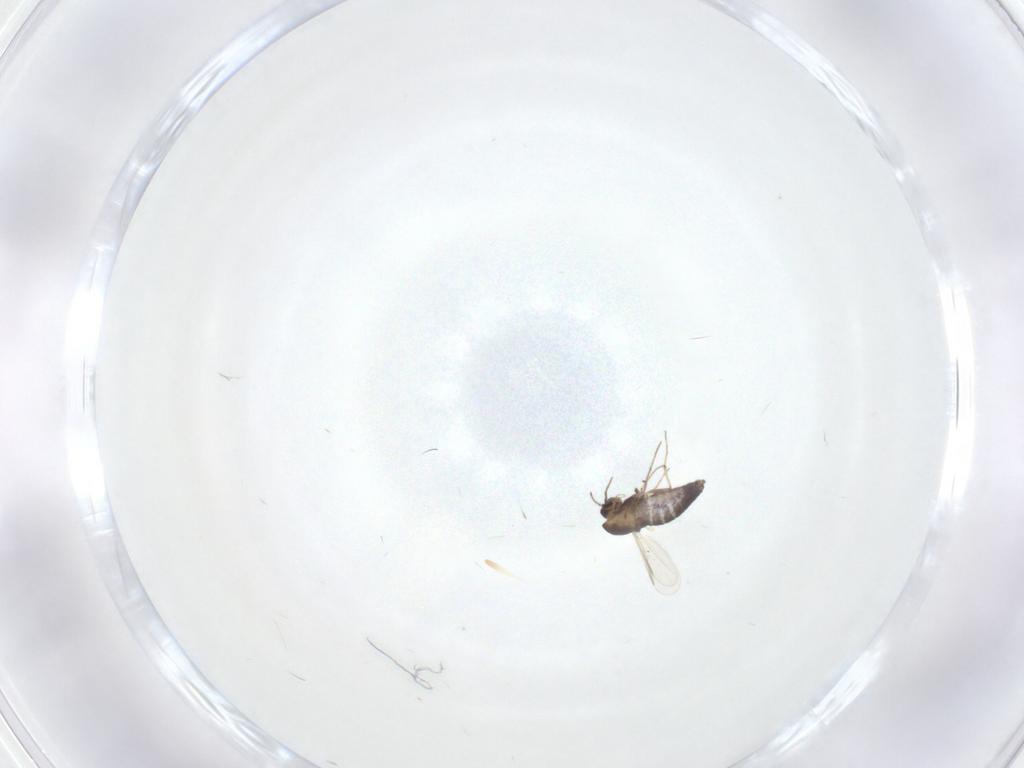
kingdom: Animalia
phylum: Arthropoda
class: Insecta
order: Diptera
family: Chironomidae
